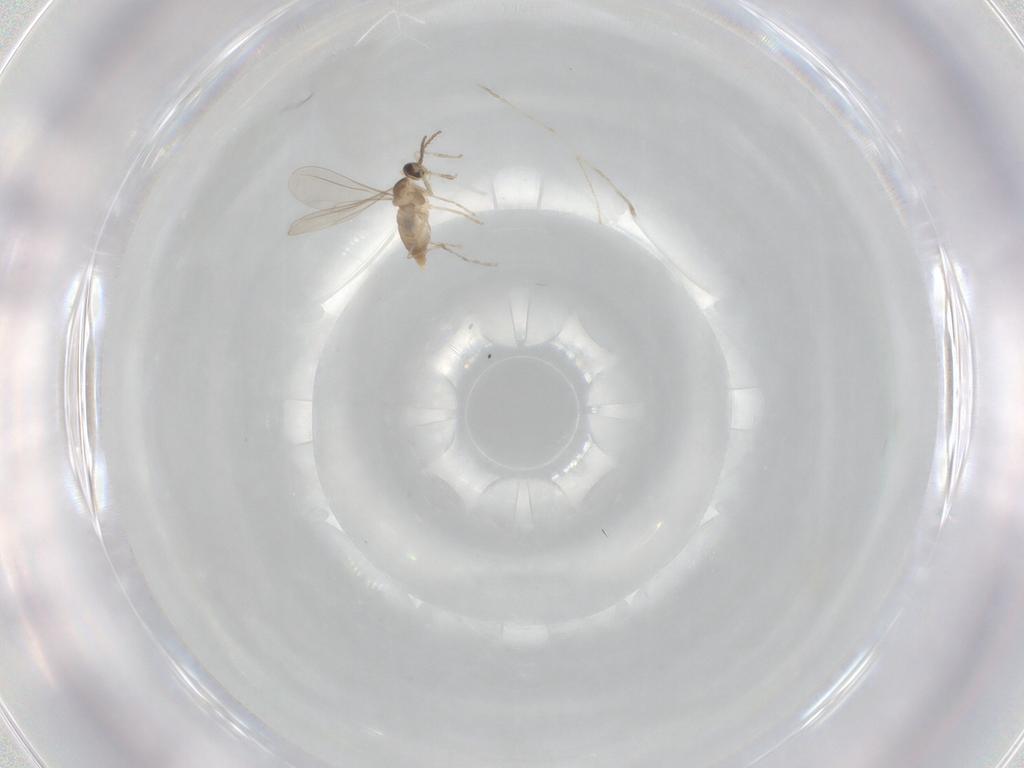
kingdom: Animalia
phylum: Arthropoda
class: Insecta
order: Diptera
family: Cecidomyiidae
